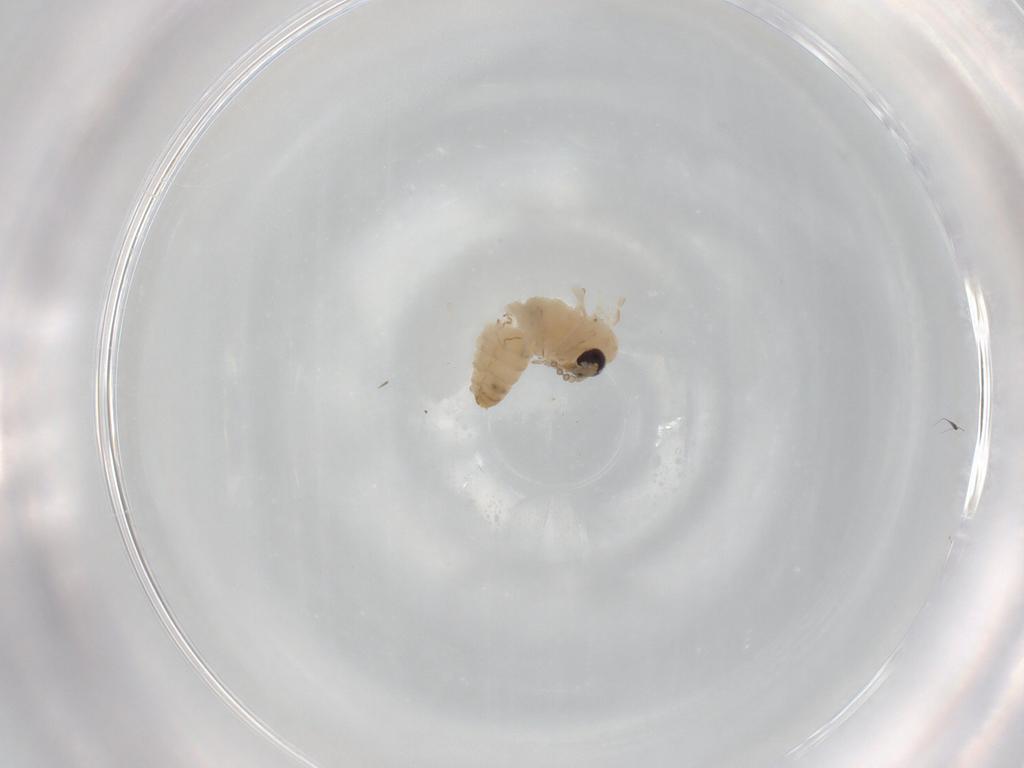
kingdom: Animalia
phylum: Arthropoda
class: Insecta
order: Diptera
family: Psychodidae
